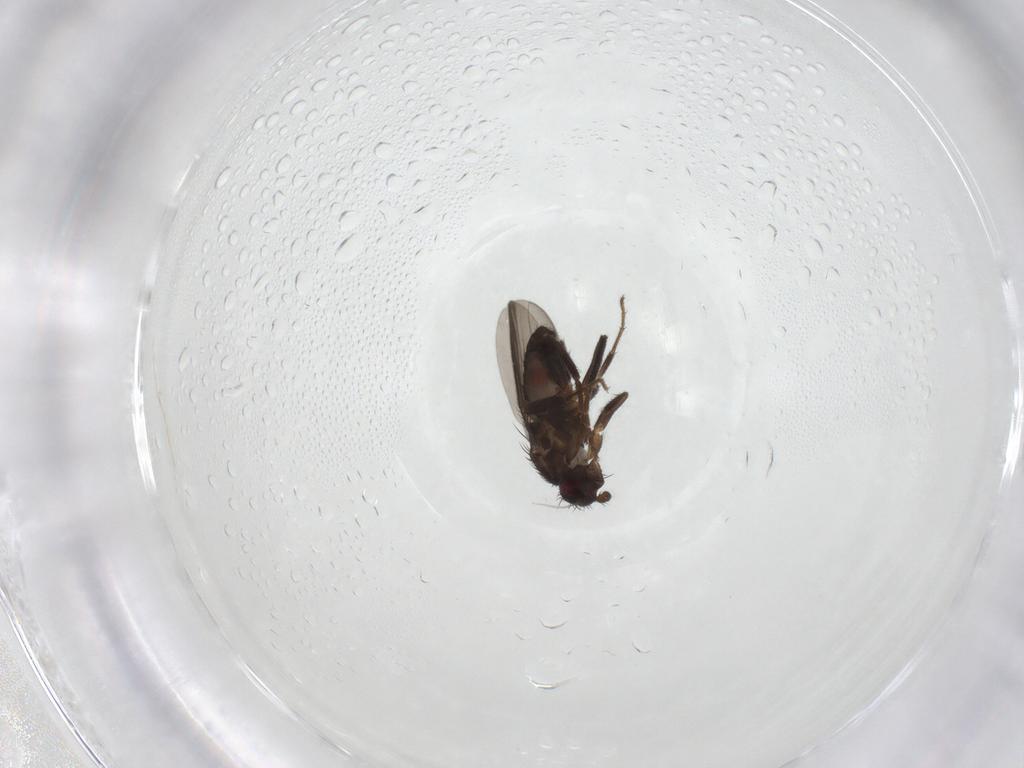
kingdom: Animalia
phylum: Arthropoda
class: Insecta
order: Diptera
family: Sphaeroceridae
